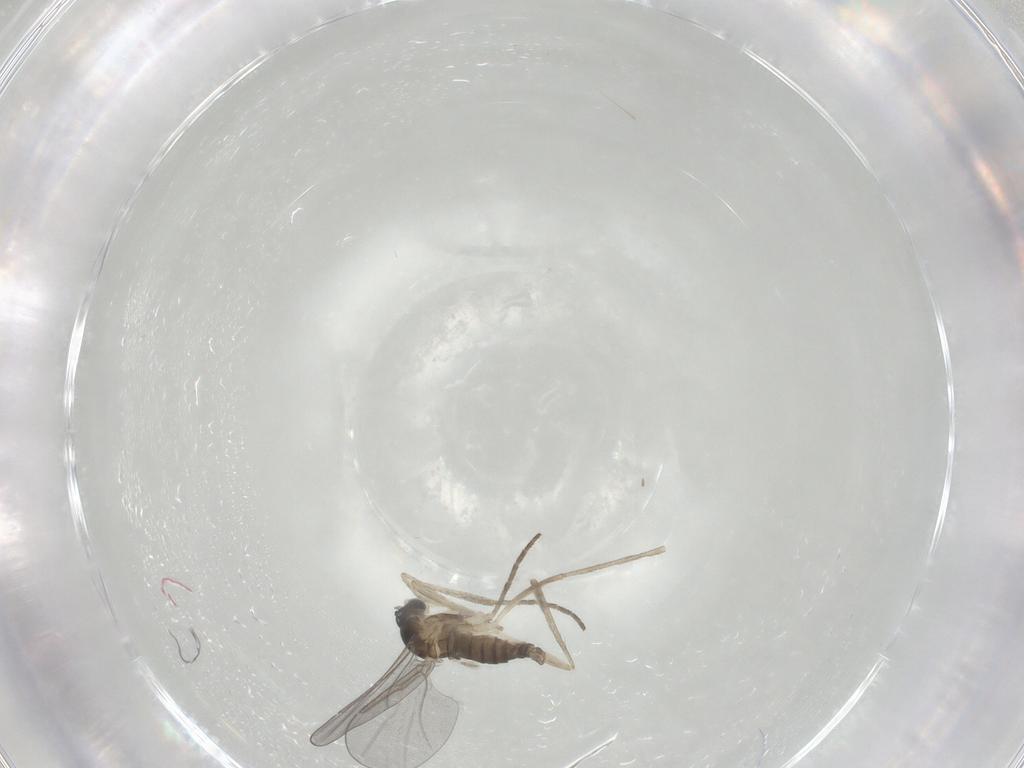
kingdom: Animalia
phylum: Arthropoda
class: Insecta
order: Diptera
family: Cecidomyiidae
